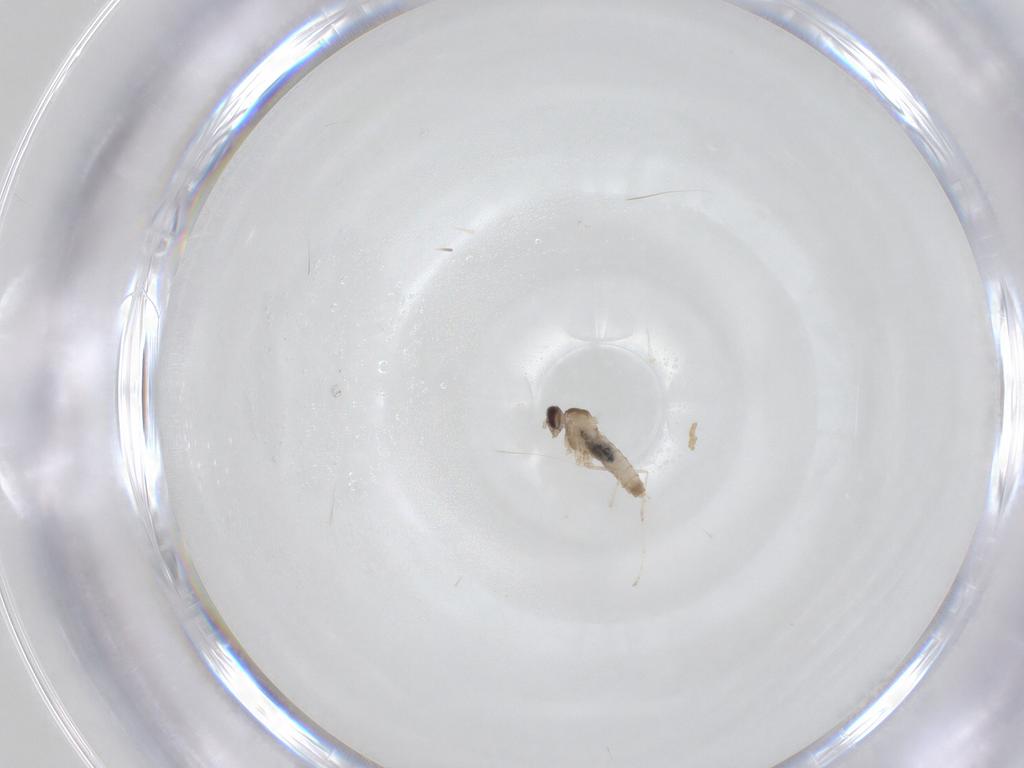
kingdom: Animalia
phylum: Arthropoda
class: Insecta
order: Diptera
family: Cecidomyiidae
